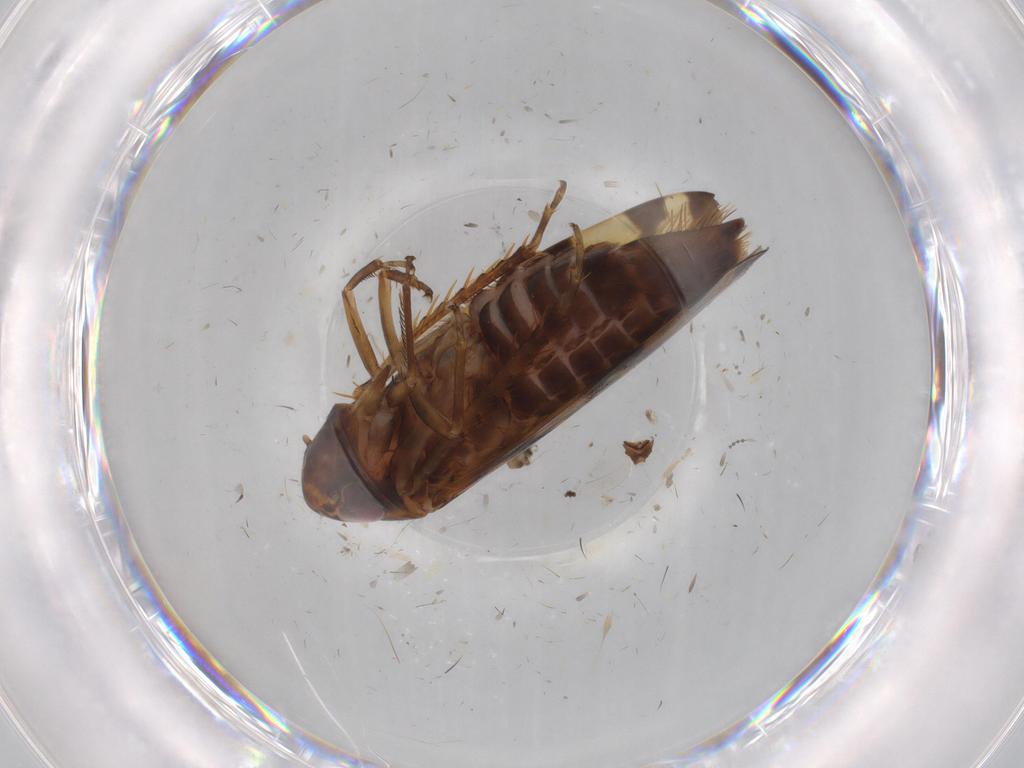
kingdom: Animalia
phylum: Arthropoda
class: Insecta
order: Hemiptera
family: Cicadellidae
